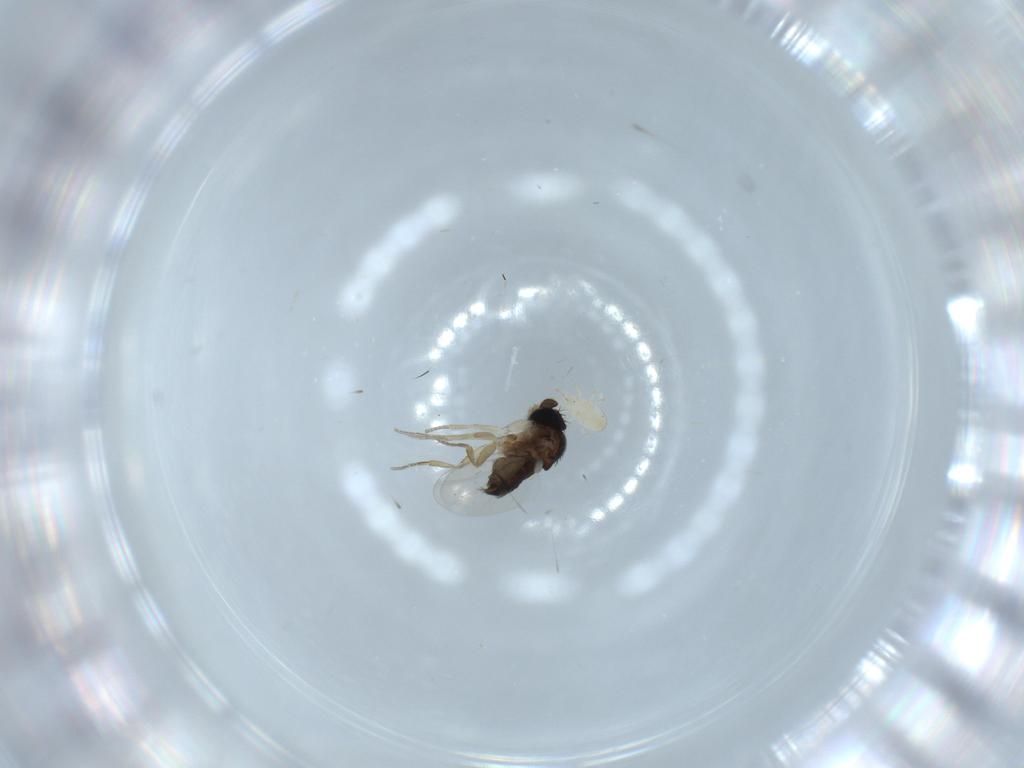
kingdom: Animalia
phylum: Arthropoda
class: Insecta
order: Diptera
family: Phoridae
